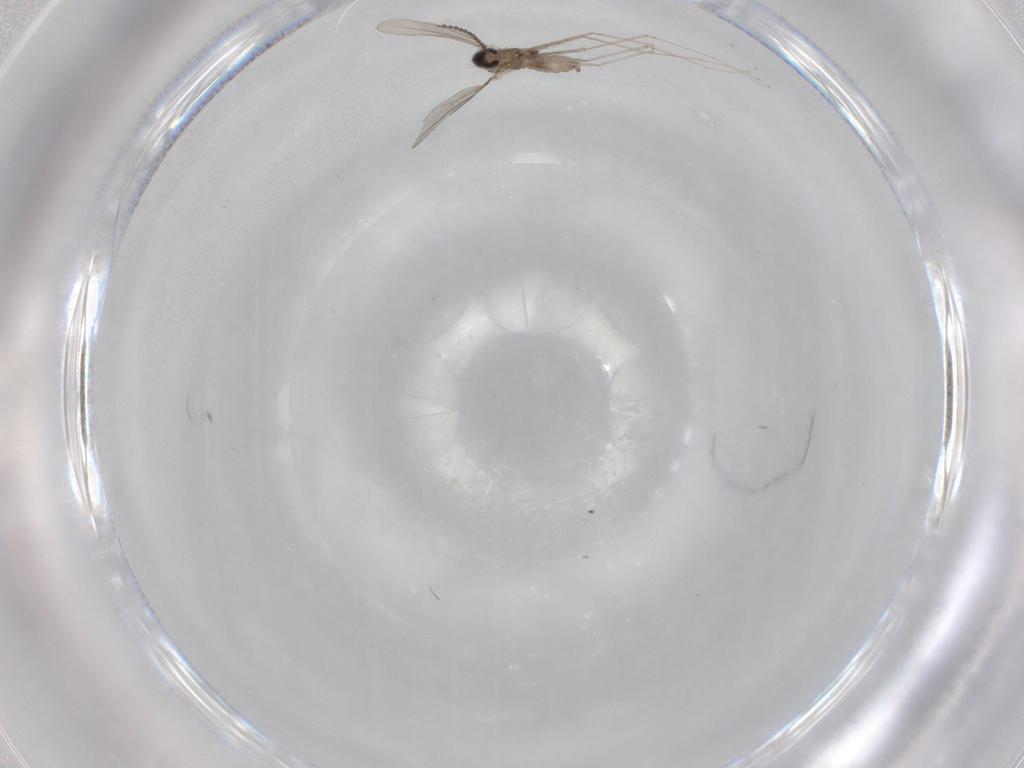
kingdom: Animalia
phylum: Arthropoda
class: Insecta
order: Diptera
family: Cecidomyiidae
